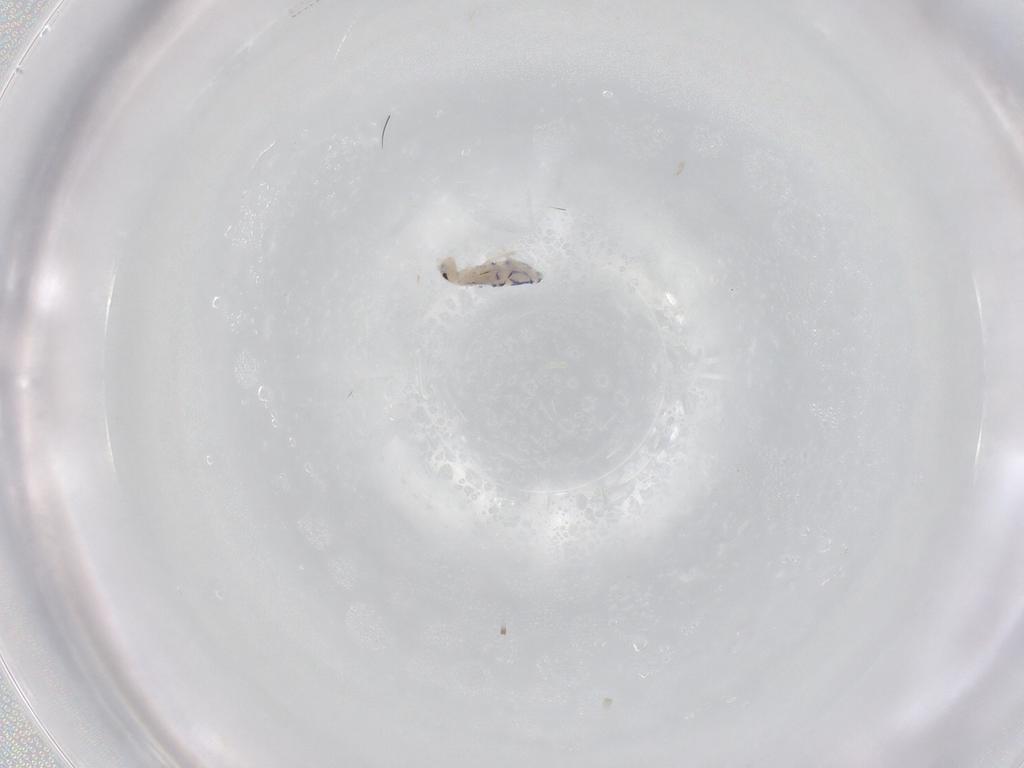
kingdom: Animalia
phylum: Arthropoda
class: Collembola
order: Entomobryomorpha
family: Entomobryidae
